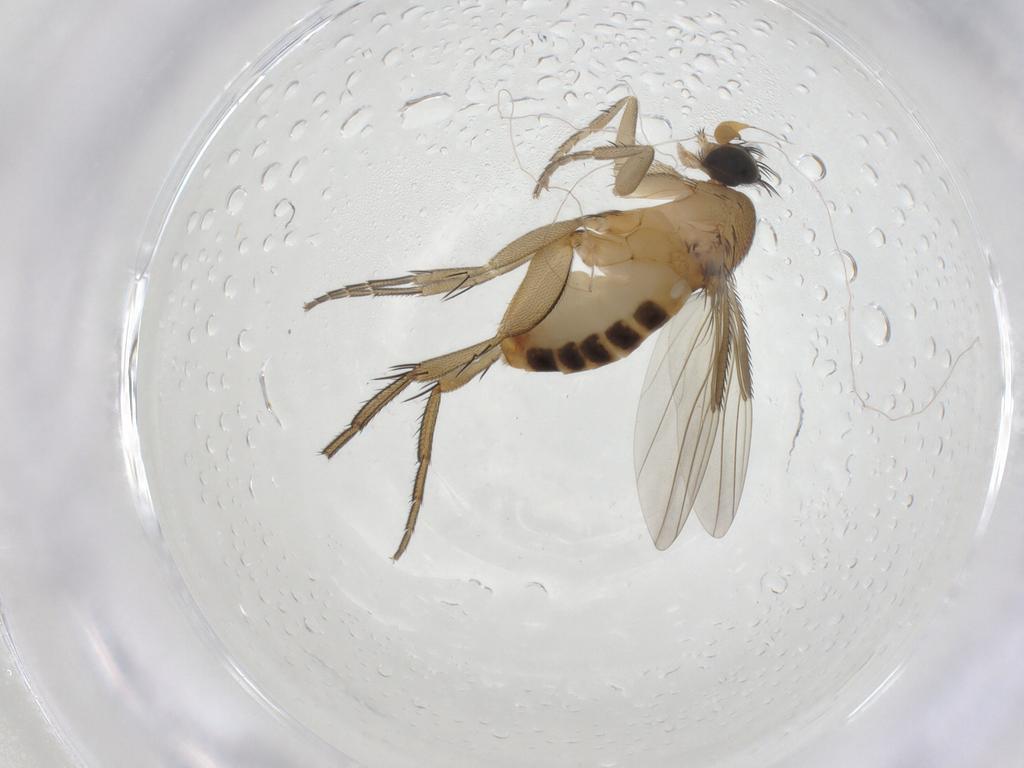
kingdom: Animalia
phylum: Arthropoda
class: Insecta
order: Diptera
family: Phoridae
